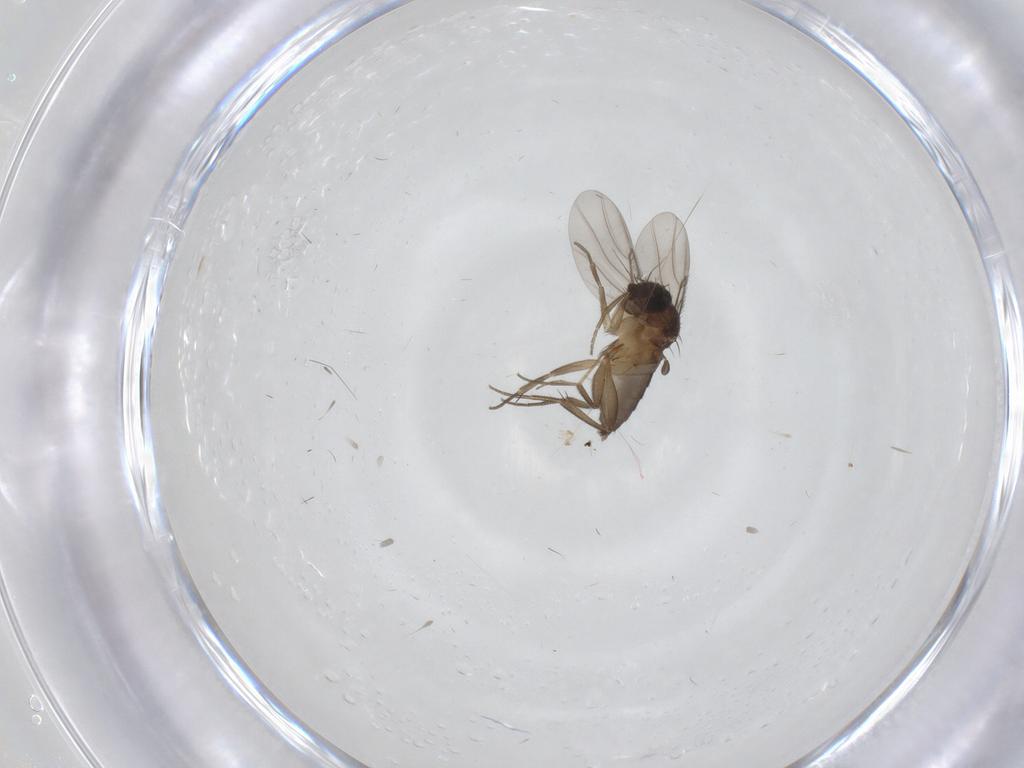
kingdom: Animalia
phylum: Arthropoda
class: Insecta
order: Diptera
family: Phoridae
